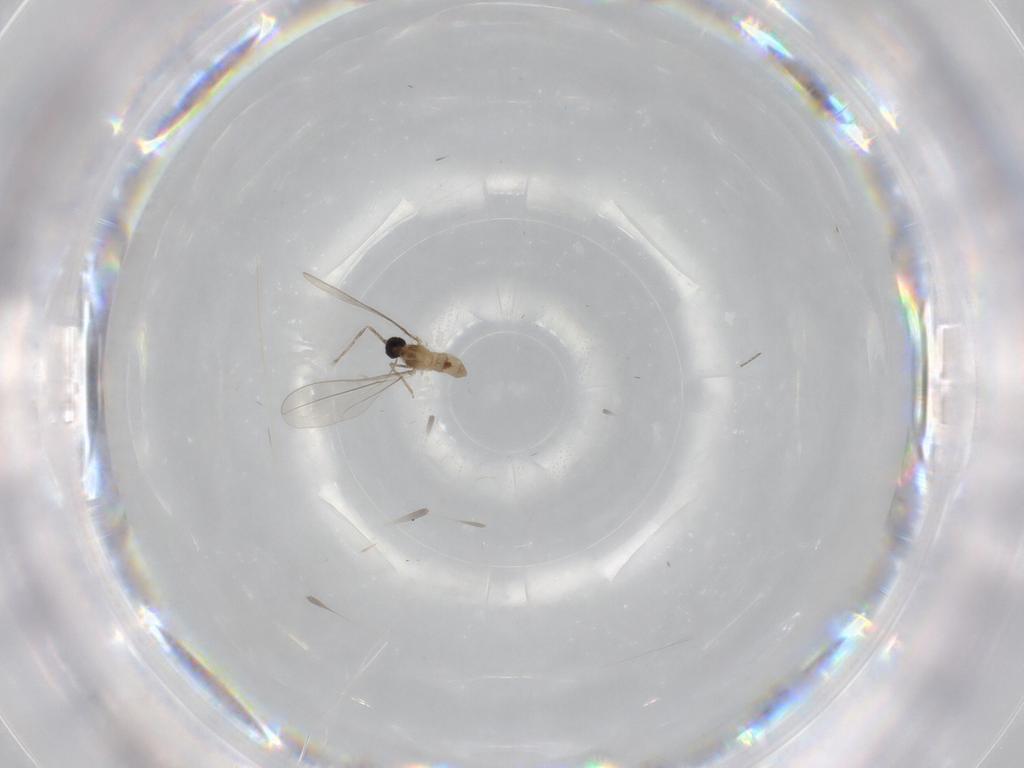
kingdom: Animalia
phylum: Arthropoda
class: Insecta
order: Diptera
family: Cecidomyiidae
